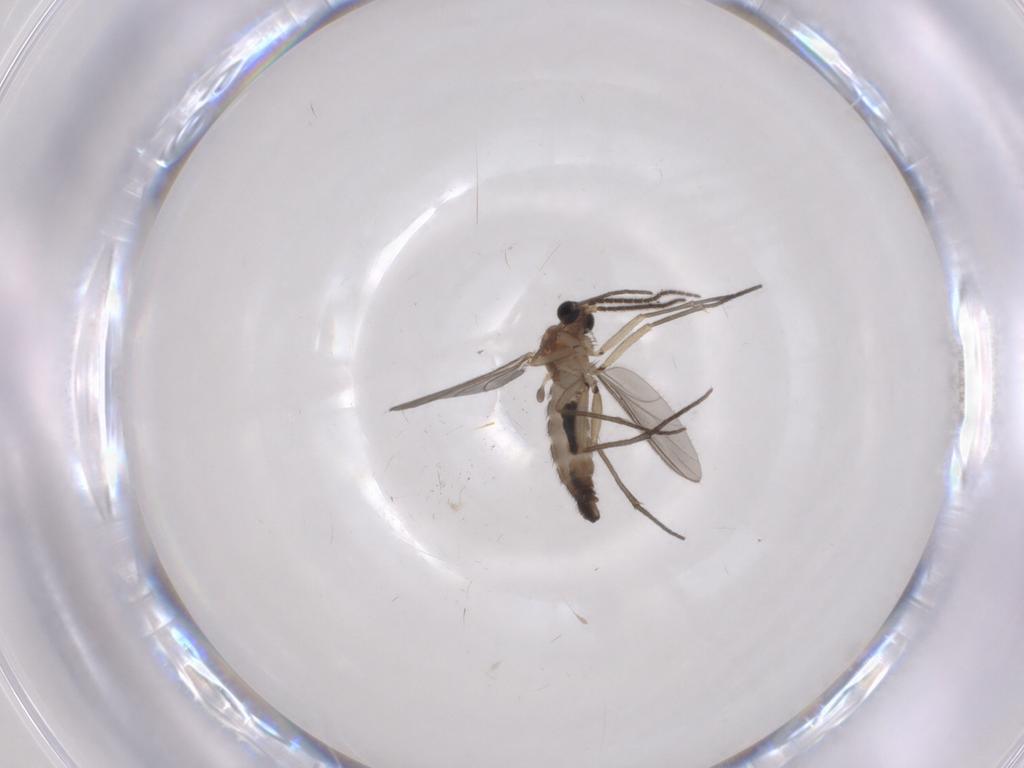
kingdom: Animalia
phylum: Arthropoda
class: Insecta
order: Diptera
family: Sciaridae
